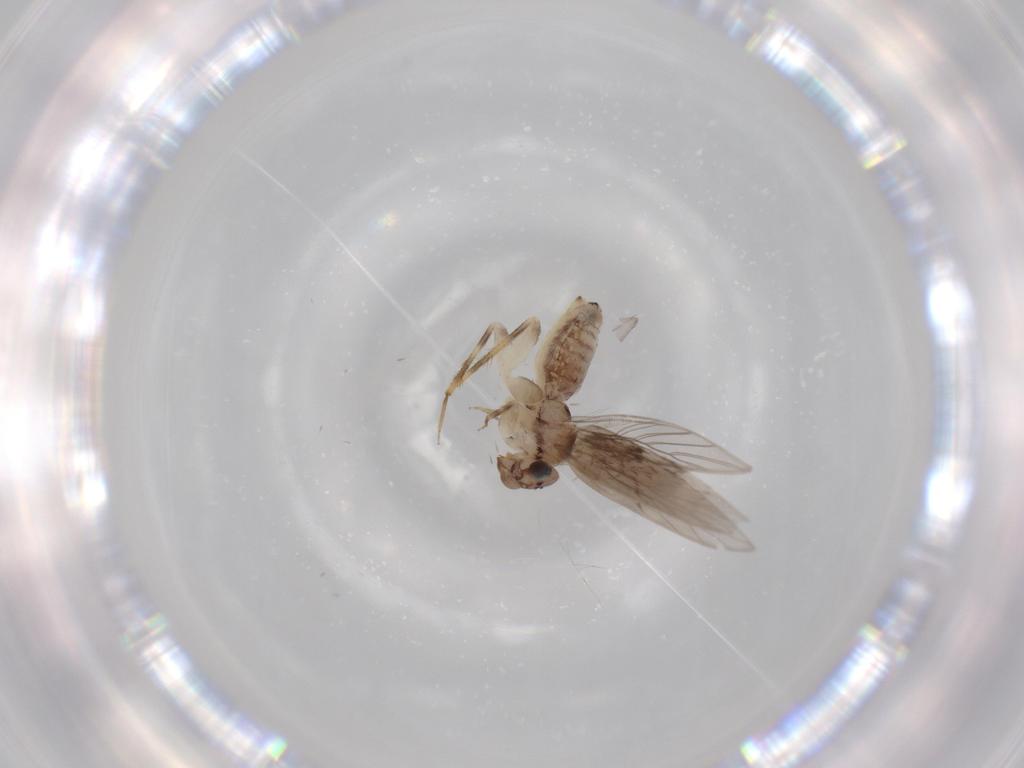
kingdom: Animalia
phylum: Arthropoda
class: Insecta
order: Psocodea
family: Lepidopsocidae
